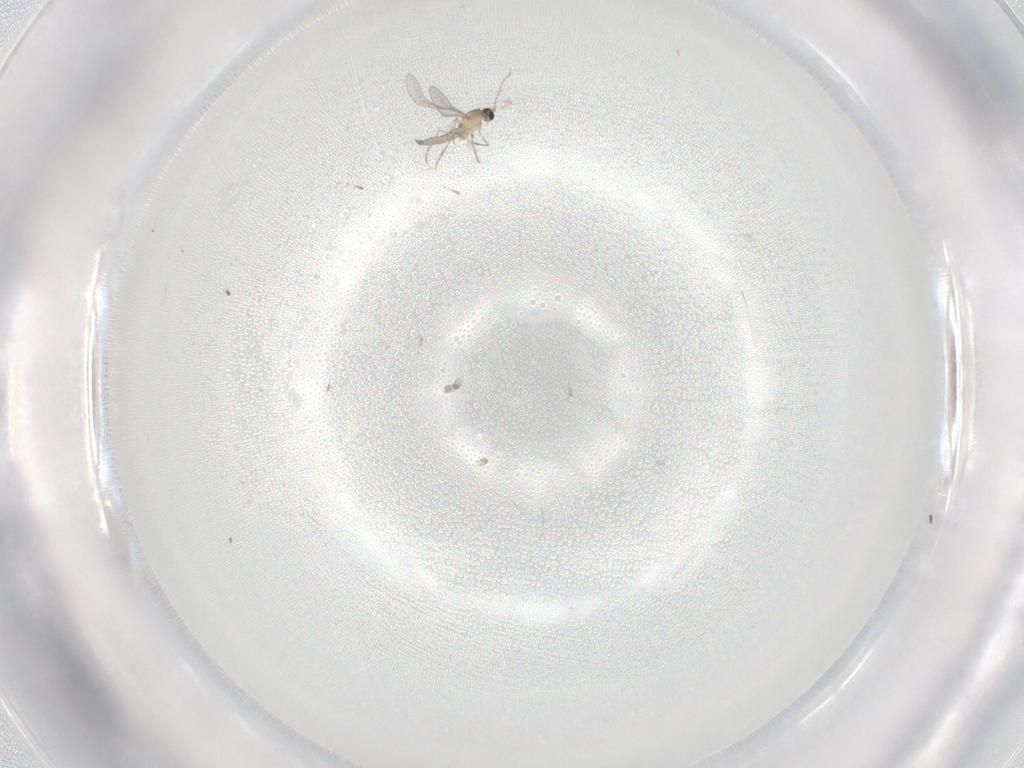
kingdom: Animalia
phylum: Arthropoda
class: Insecta
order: Diptera
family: Cecidomyiidae
